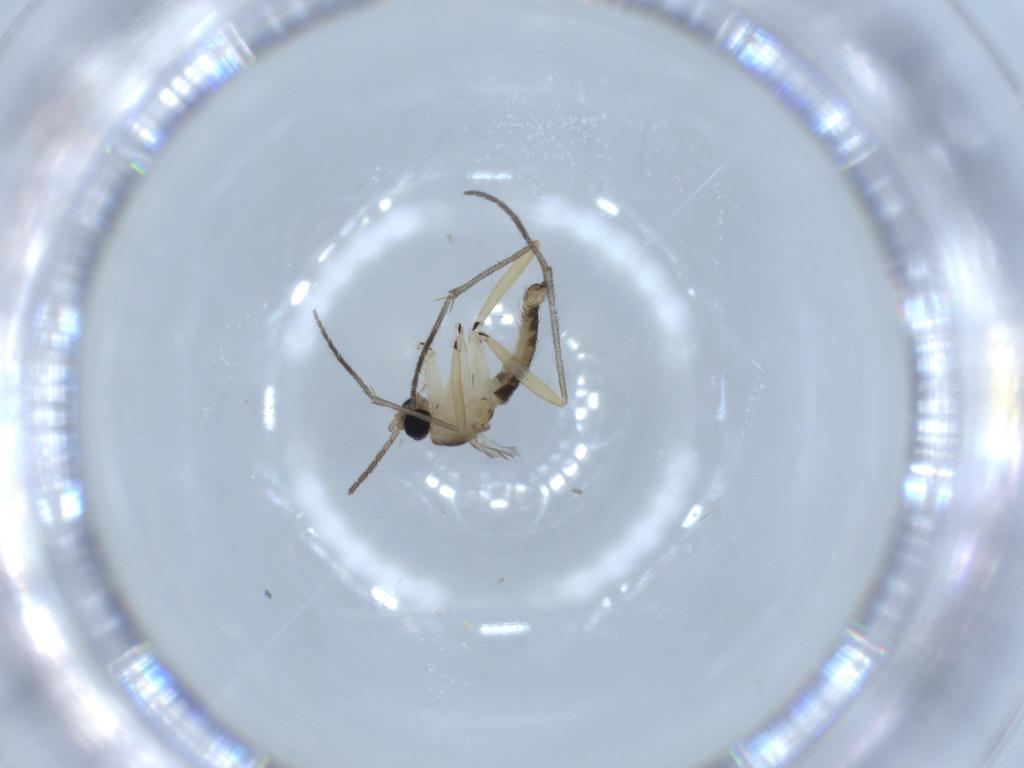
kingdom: Animalia
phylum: Arthropoda
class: Insecta
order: Diptera
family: Sciaridae
